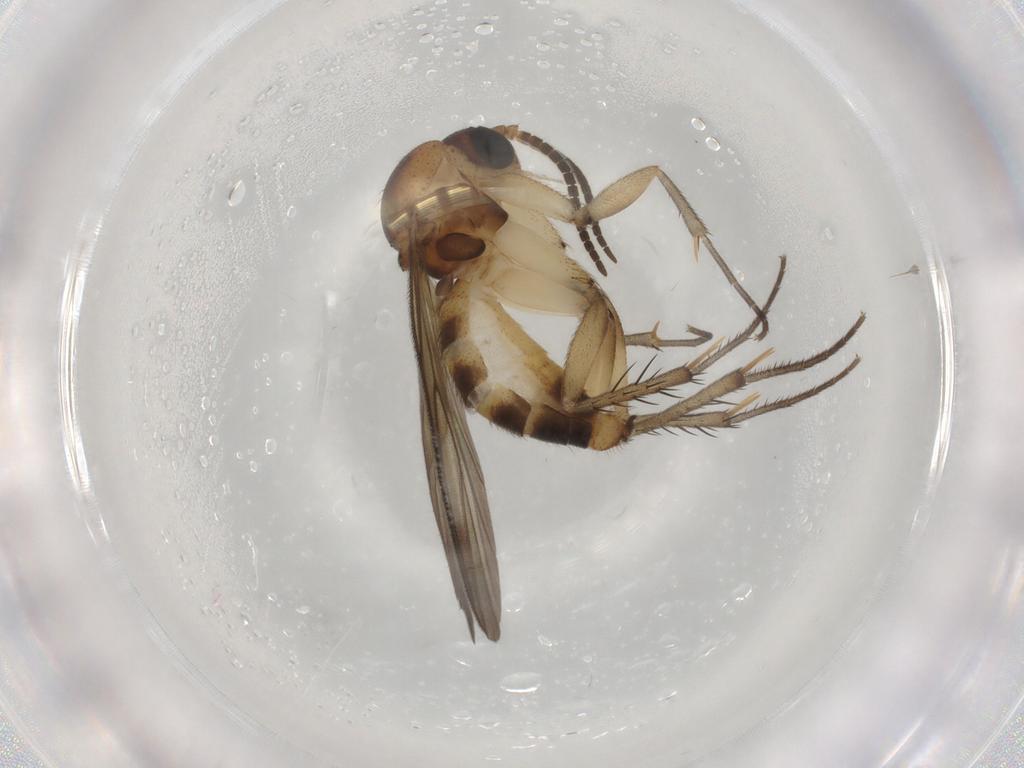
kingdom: Animalia
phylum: Arthropoda
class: Insecta
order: Diptera
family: Mycetophilidae
